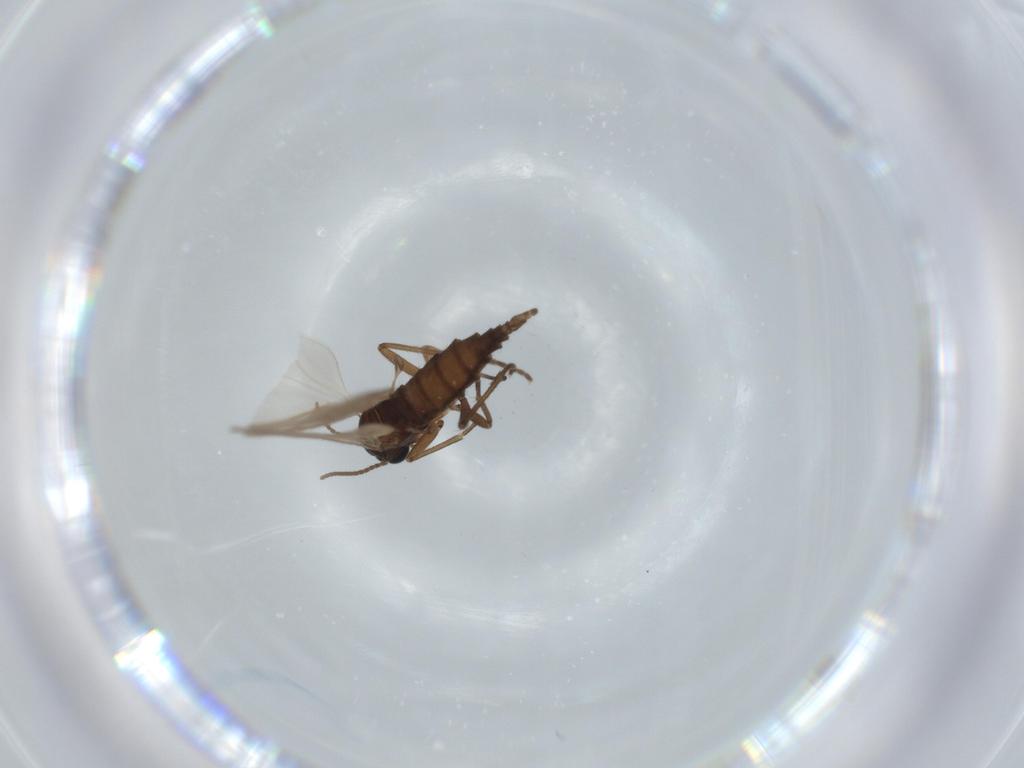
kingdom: Animalia
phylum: Arthropoda
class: Insecta
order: Diptera
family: Sciaridae
